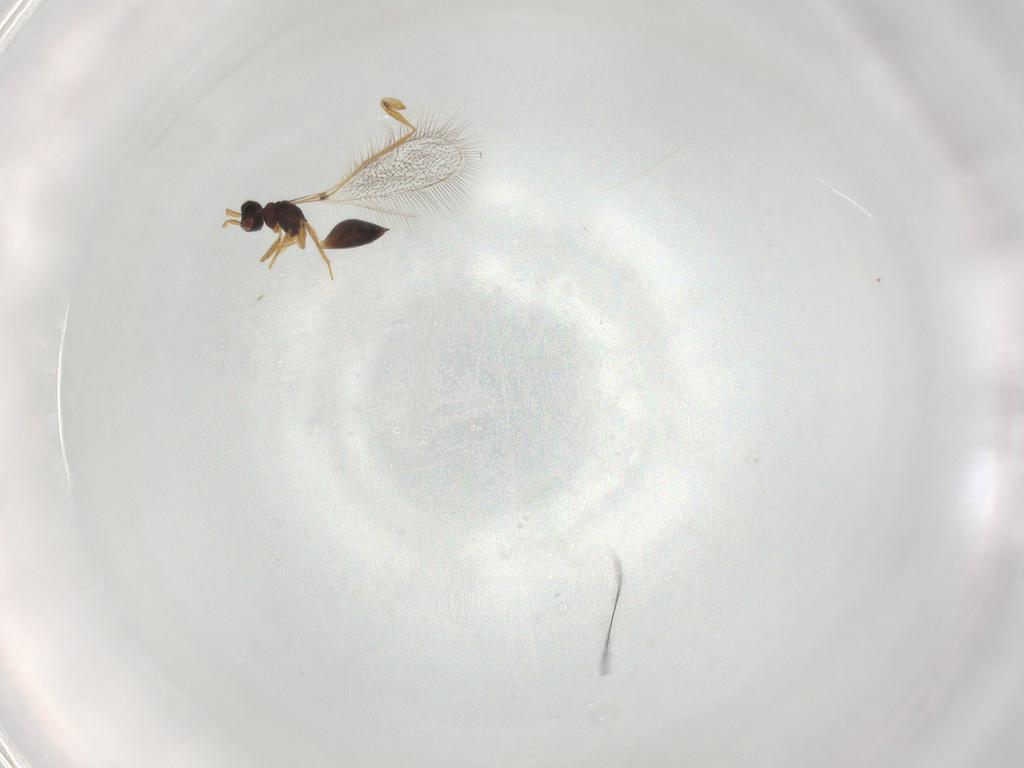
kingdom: Animalia
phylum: Arthropoda
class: Insecta
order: Hymenoptera
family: Mymaridae
